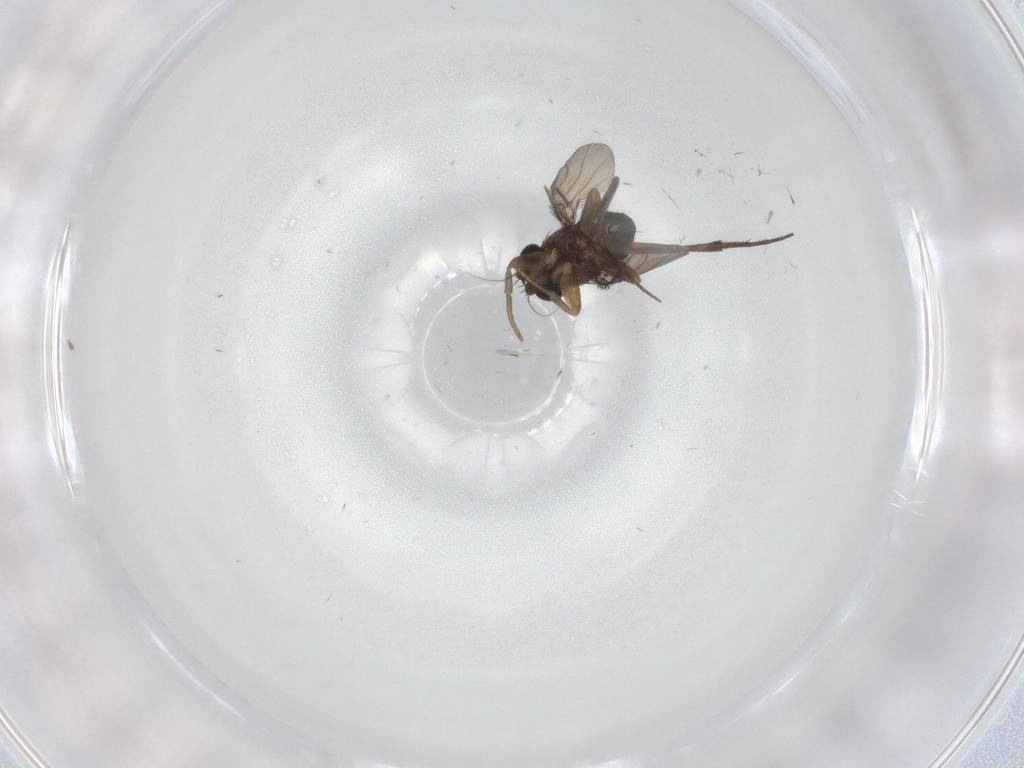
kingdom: Animalia
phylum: Arthropoda
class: Insecta
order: Diptera
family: Phoridae
